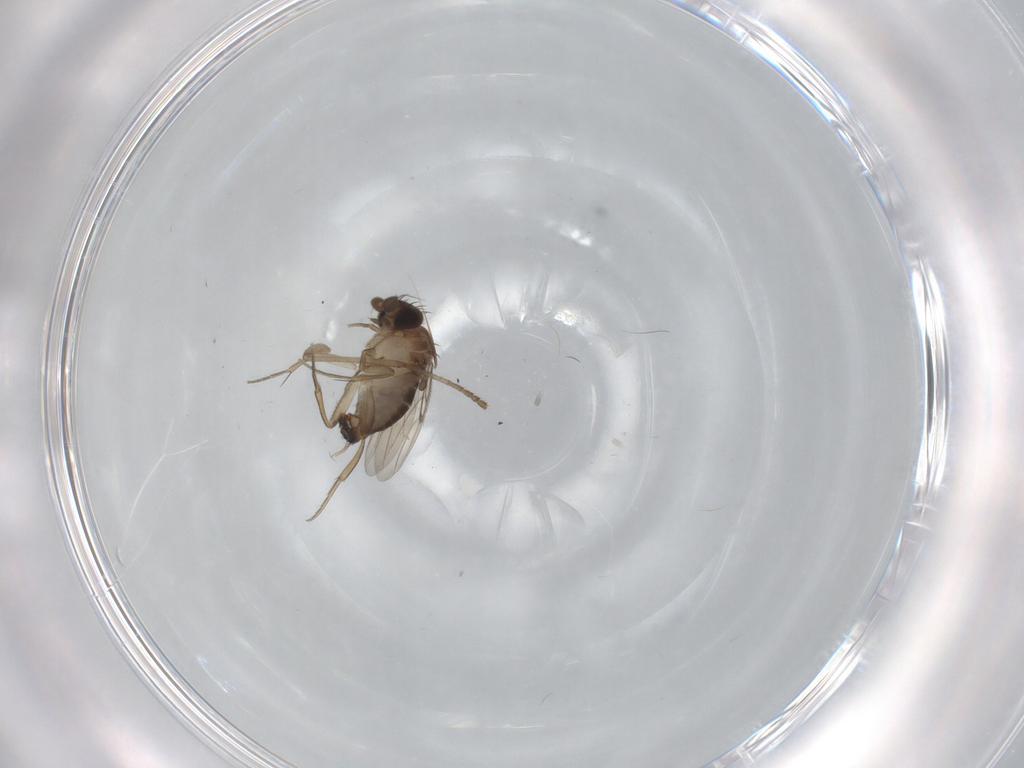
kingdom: Animalia
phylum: Arthropoda
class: Insecta
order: Diptera
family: Psychodidae
